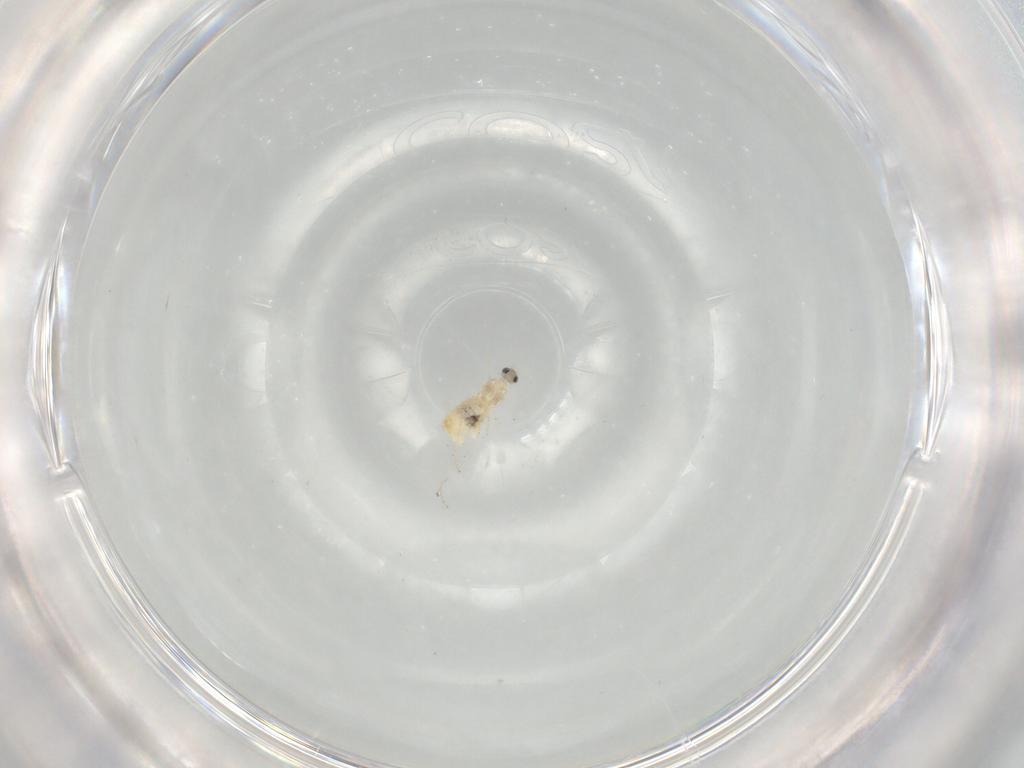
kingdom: Animalia
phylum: Arthropoda
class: Insecta
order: Diptera
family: Cecidomyiidae
